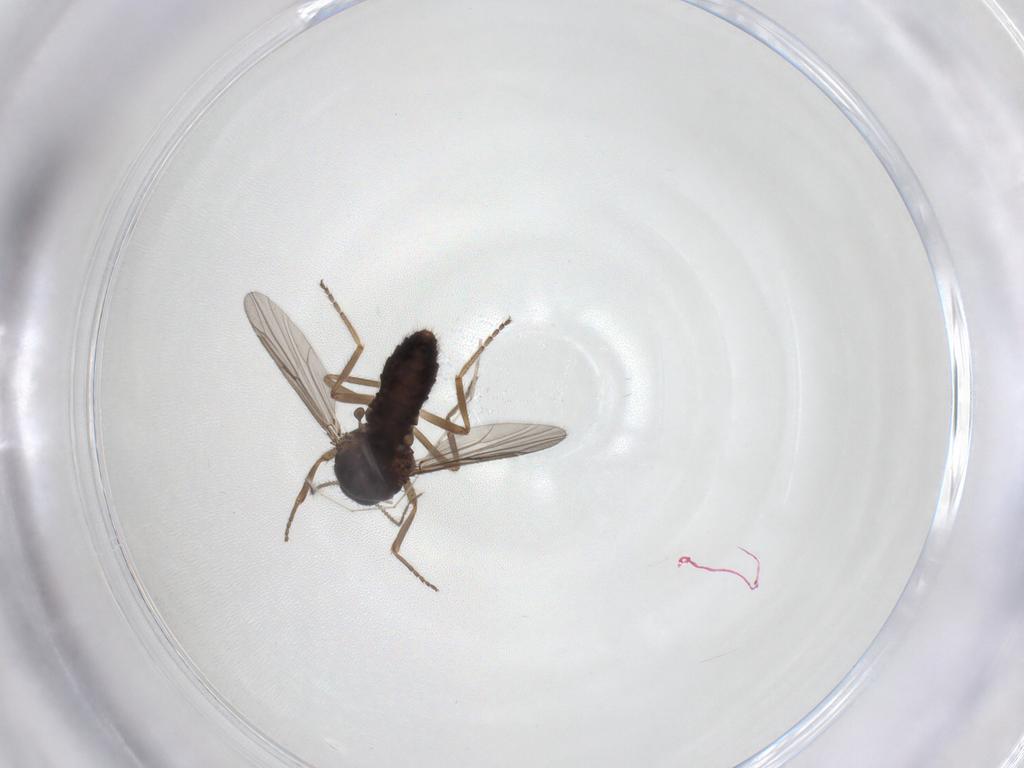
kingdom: Animalia
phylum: Arthropoda
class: Insecta
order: Diptera
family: Ceratopogonidae
